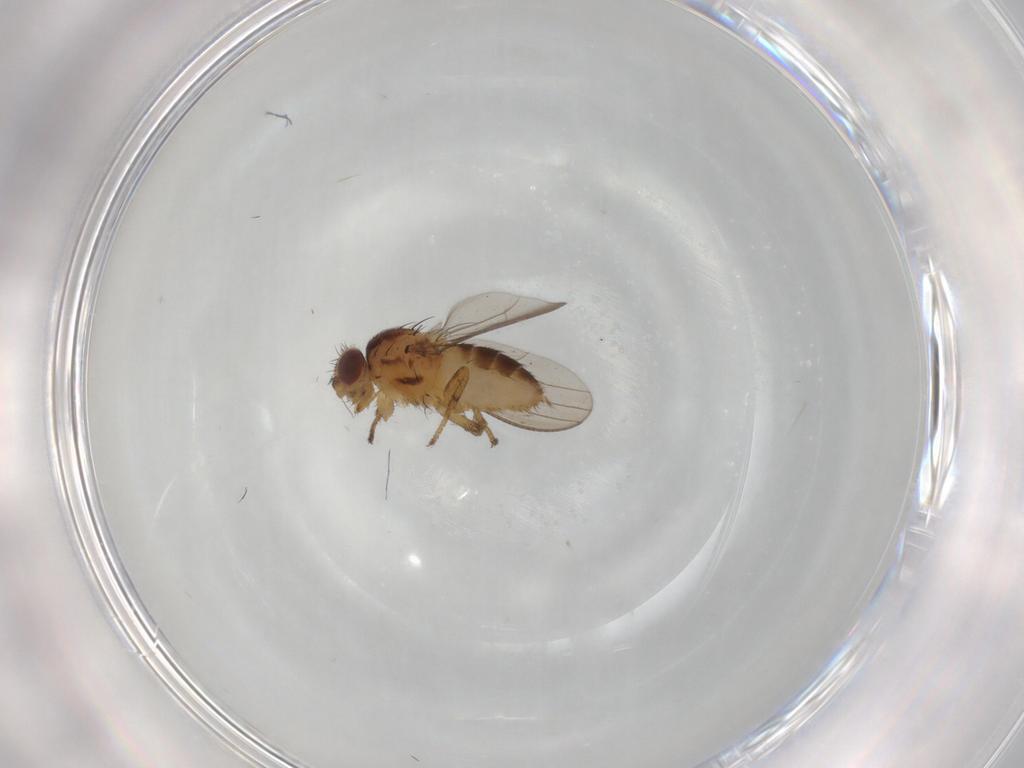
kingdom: Animalia
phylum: Arthropoda
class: Insecta
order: Diptera
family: Chloropidae
